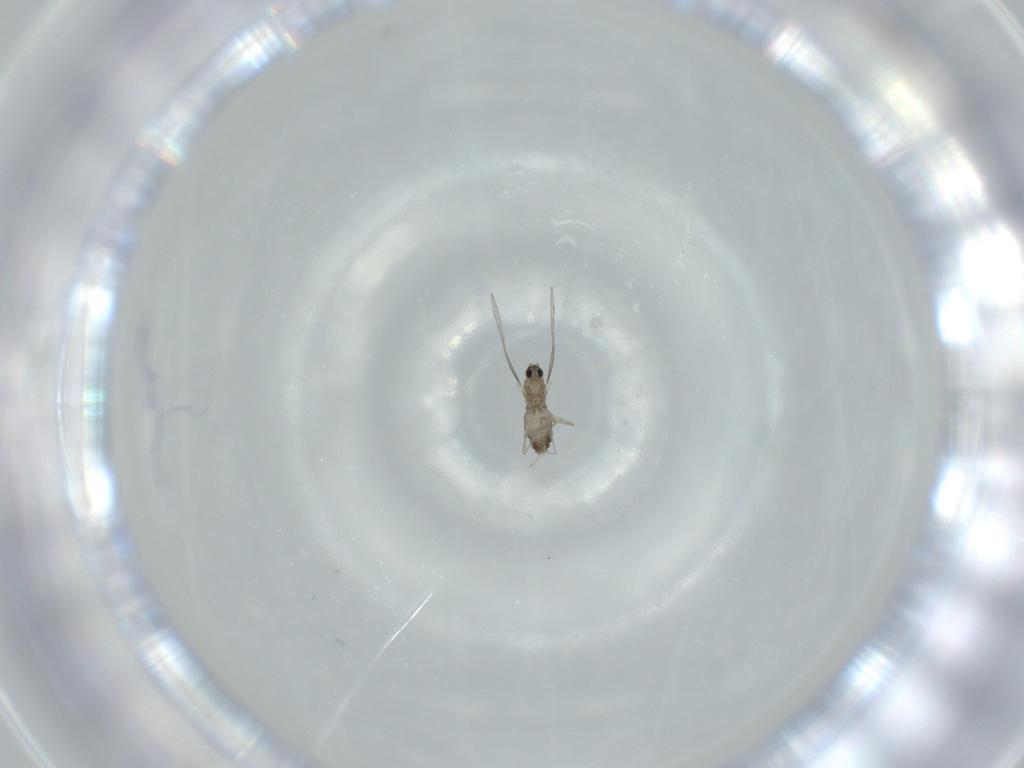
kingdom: Animalia
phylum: Arthropoda
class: Insecta
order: Diptera
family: Cecidomyiidae
